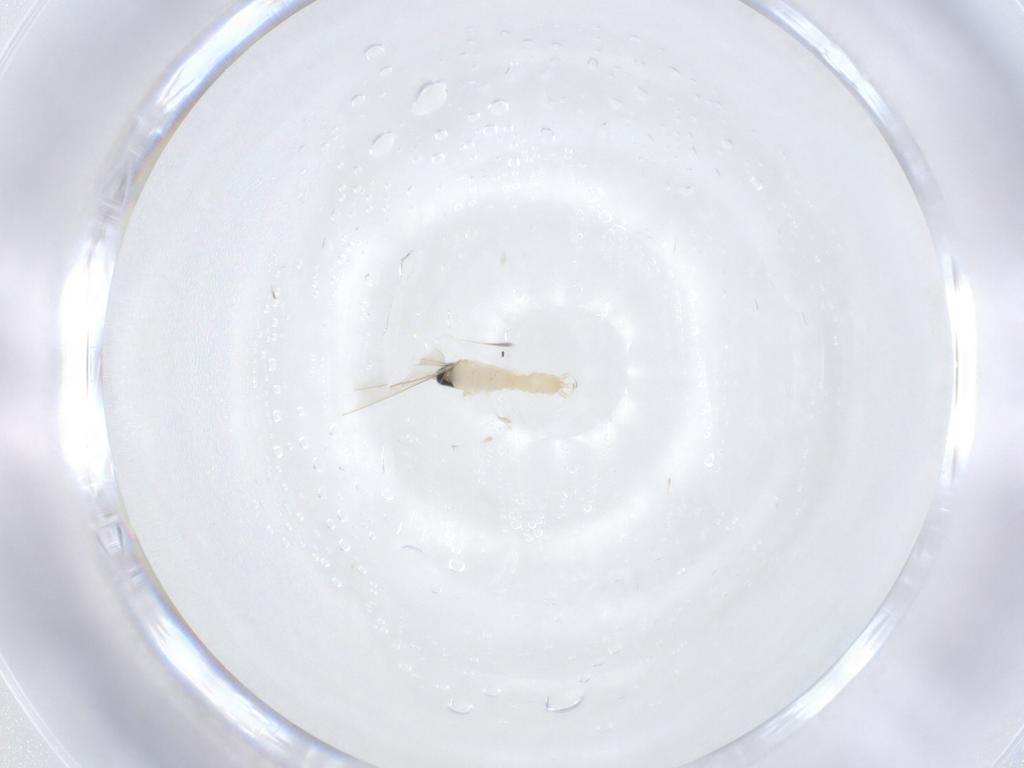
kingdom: Animalia
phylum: Arthropoda
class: Insecta
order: Diptera
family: Cecidomyiidae
